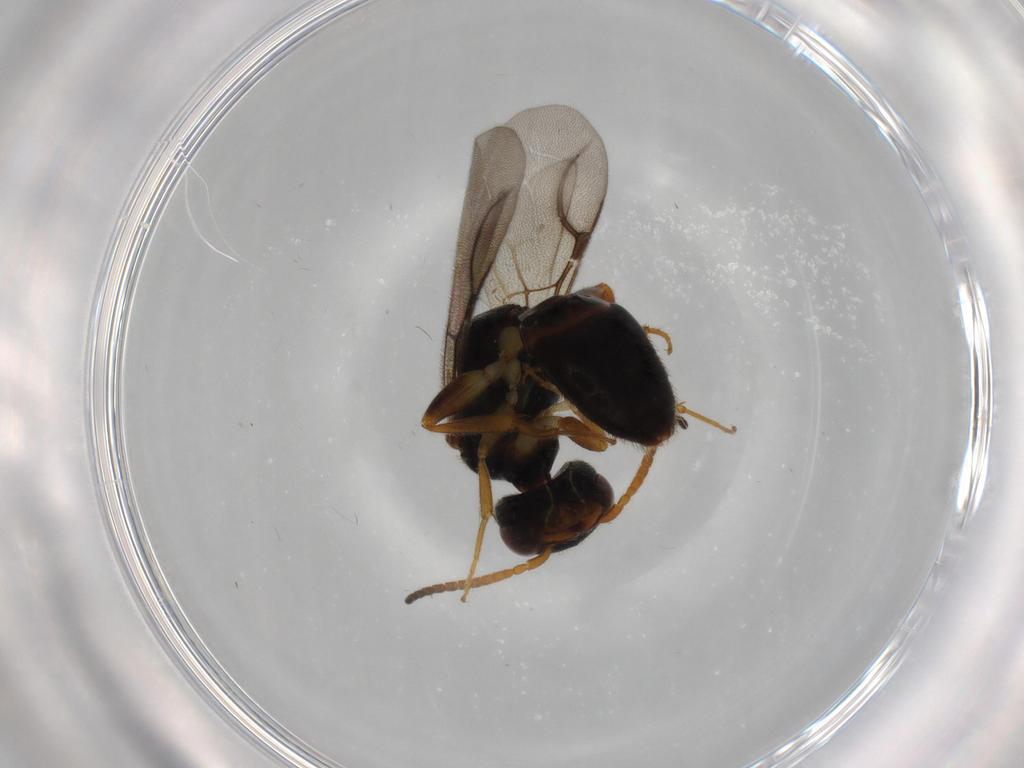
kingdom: Animalia
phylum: Arthropoda
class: Insecta
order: Hymenoptera
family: Bethylidae
